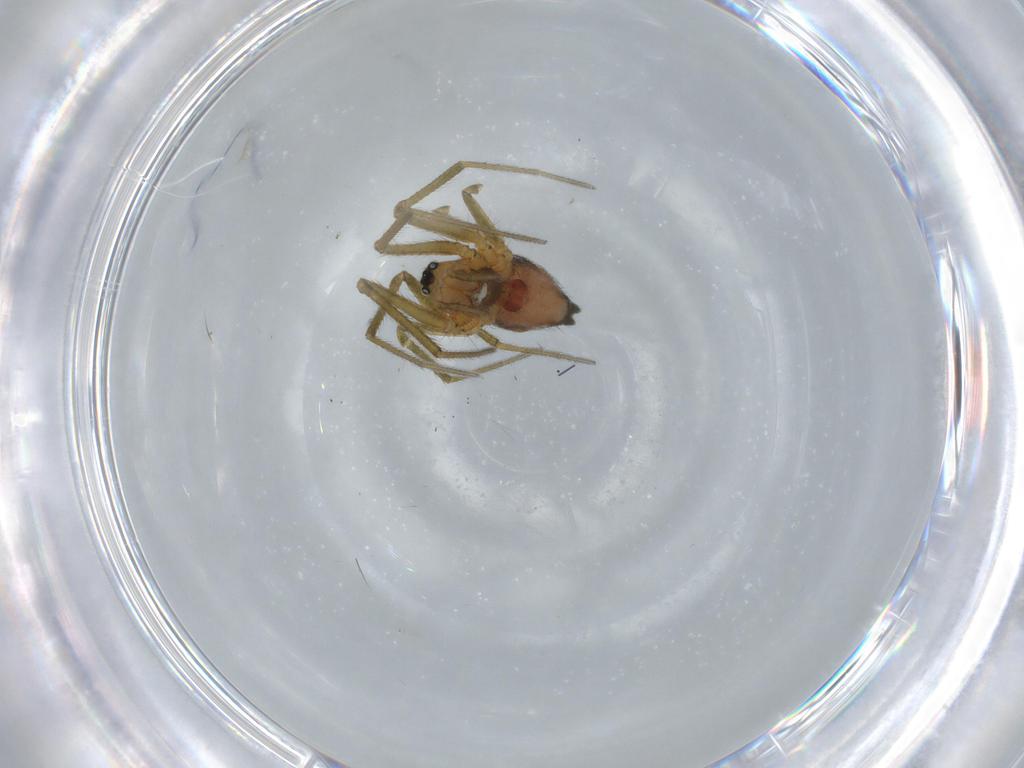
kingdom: Animalia
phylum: Arthropoda
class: Arachnida
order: Araneae
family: Linyphiidae
